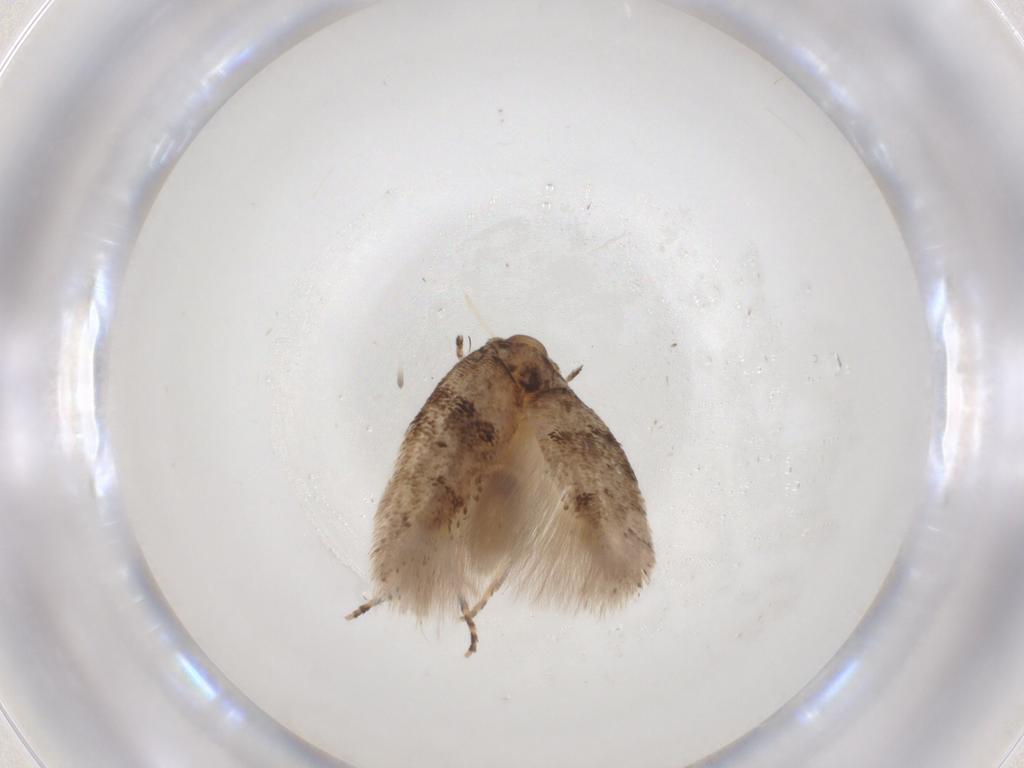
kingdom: Animalia
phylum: Arthropoda
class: Insecta
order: Lepidoptera
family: Gelechiidae
